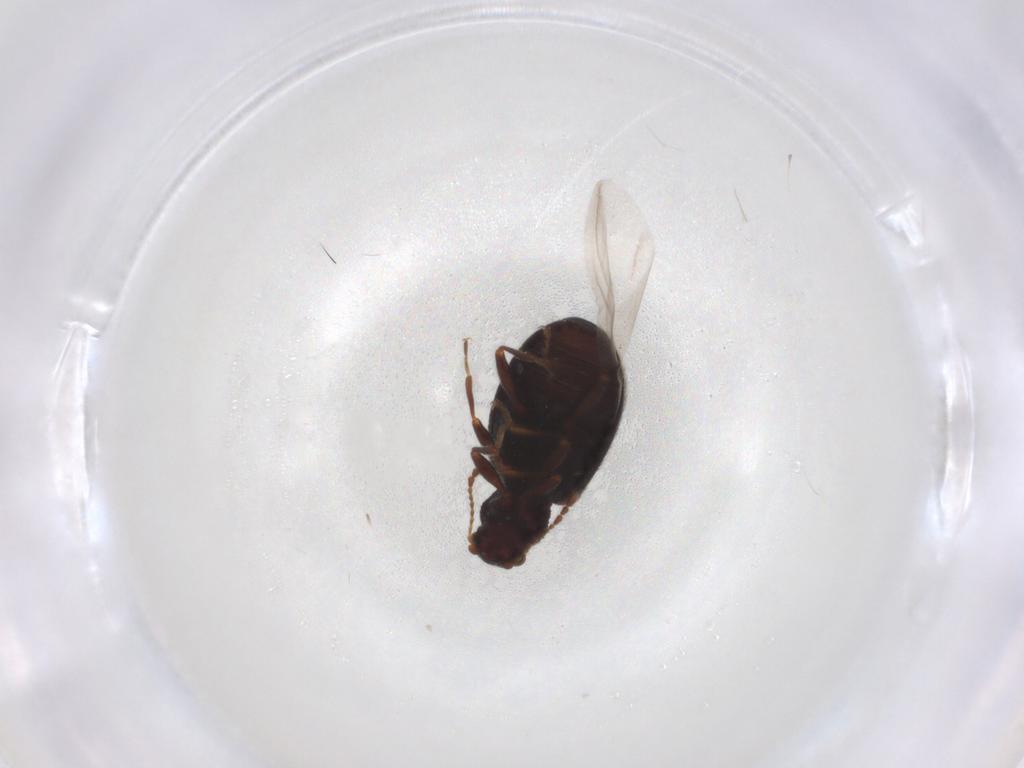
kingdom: Animalia
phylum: Arthropoda
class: Insecta
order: Coleoptera
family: Latridiidae
